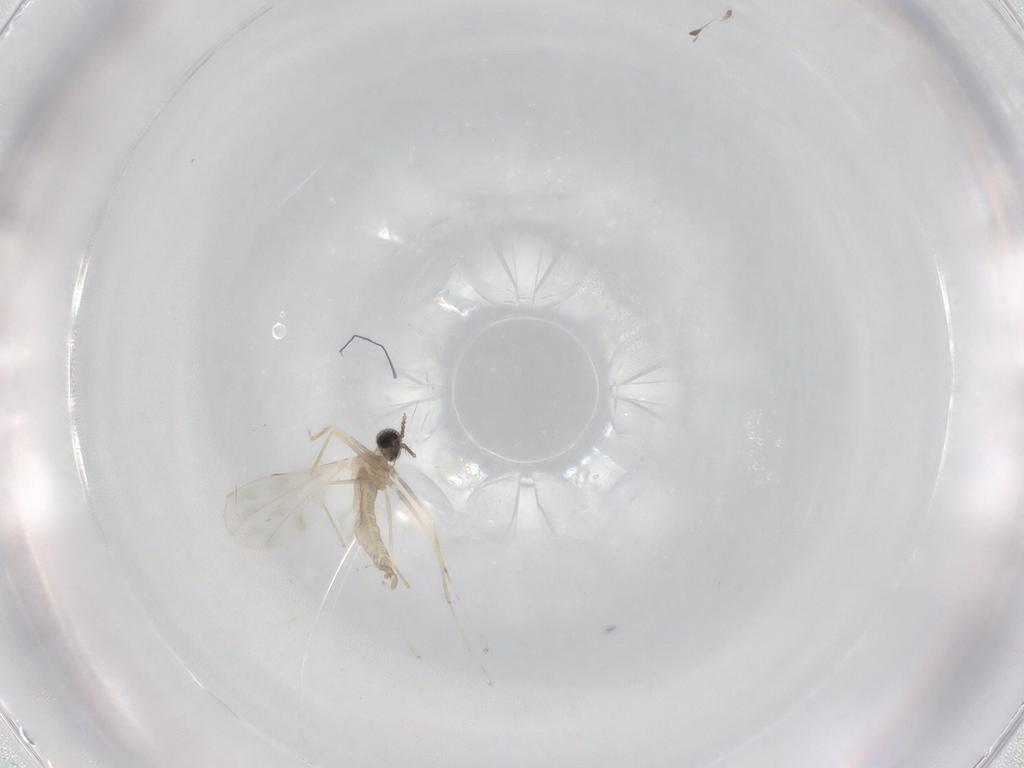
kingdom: Animalia
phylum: Arthropoda
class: Insecta
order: Diptera
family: Cecidomyiidae
